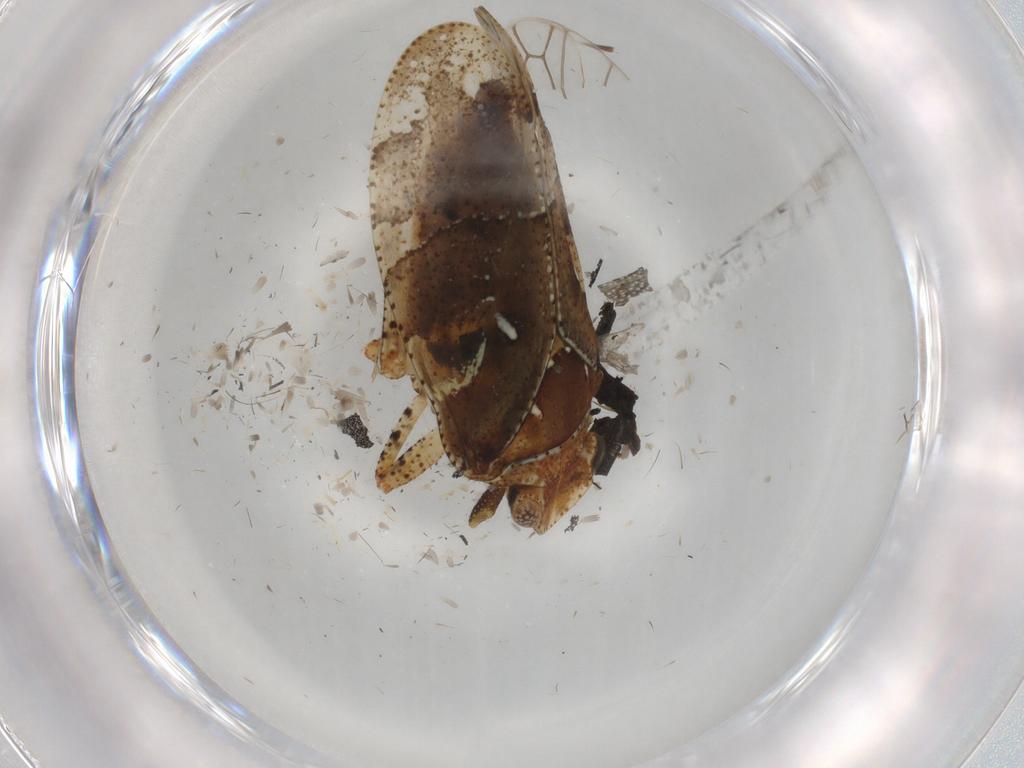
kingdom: Animalia
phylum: Arthropoda
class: Insecta
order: Hemiptera
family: Tettigometridae
